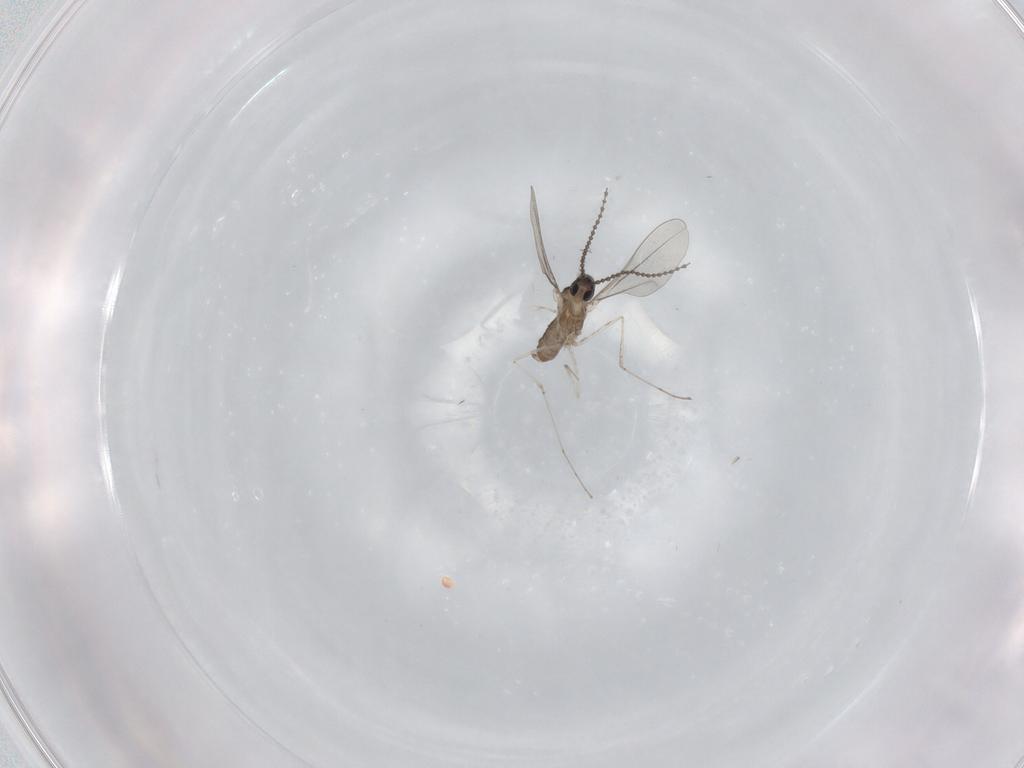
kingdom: Animalia
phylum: Arthropoda
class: Insecta
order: Diptera
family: Cecidomyiidae
